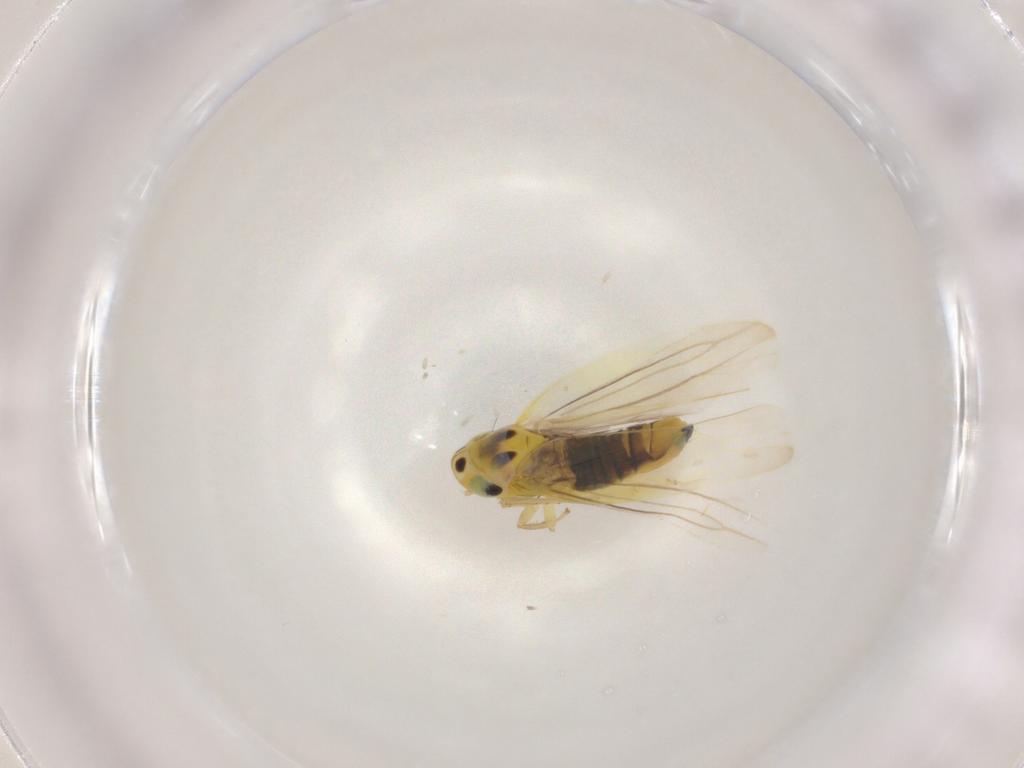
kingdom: Animalia
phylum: Arthropoda
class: Insecta
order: Hemiptera
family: Cicadellidae
